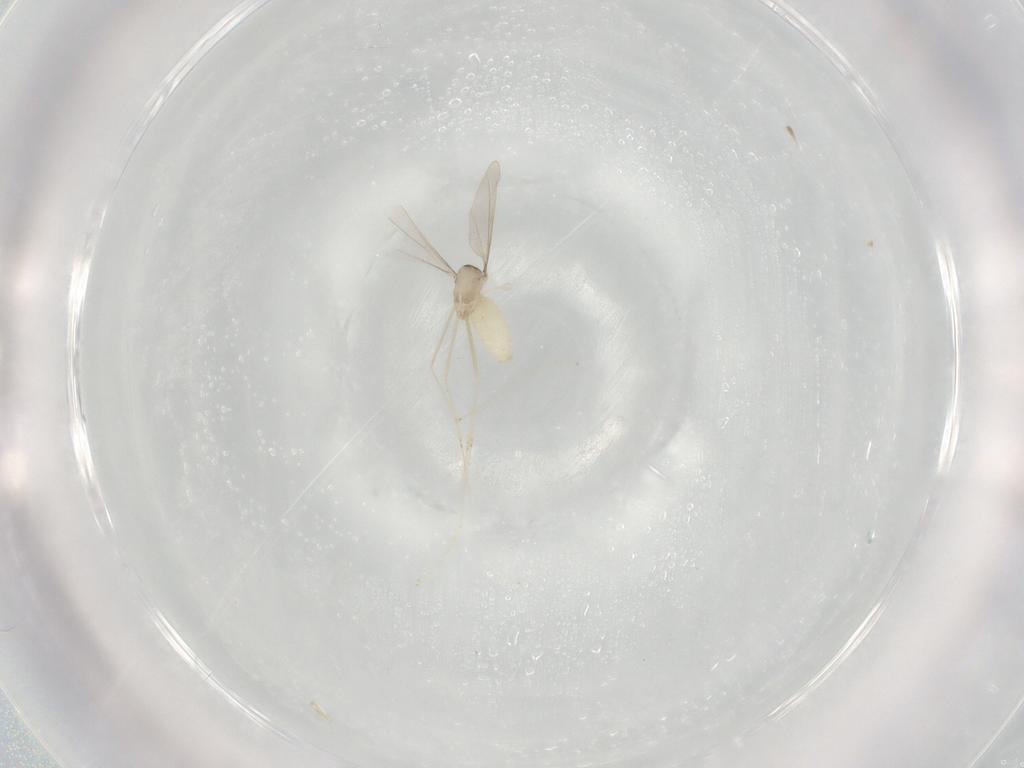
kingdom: Animalia
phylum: Arthropoda
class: Insecta
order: Diptera
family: Cecidomyiidae
